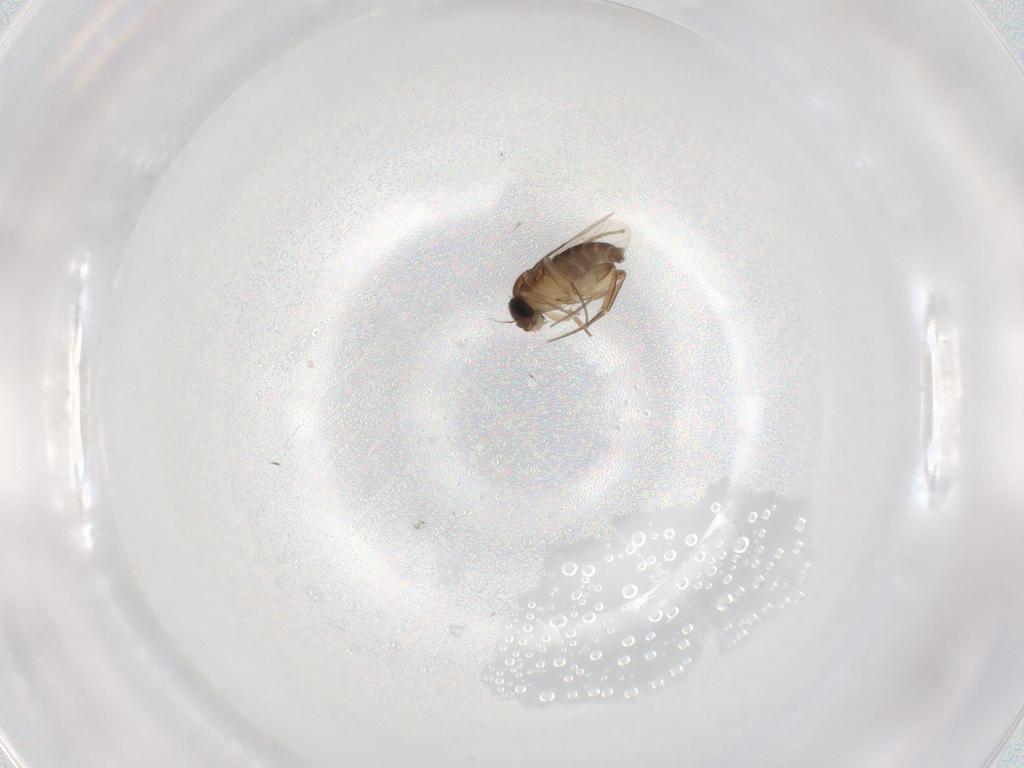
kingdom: Animalia
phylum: Arthropoda
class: Insecta
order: Diptera
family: Cecidomyiidae
